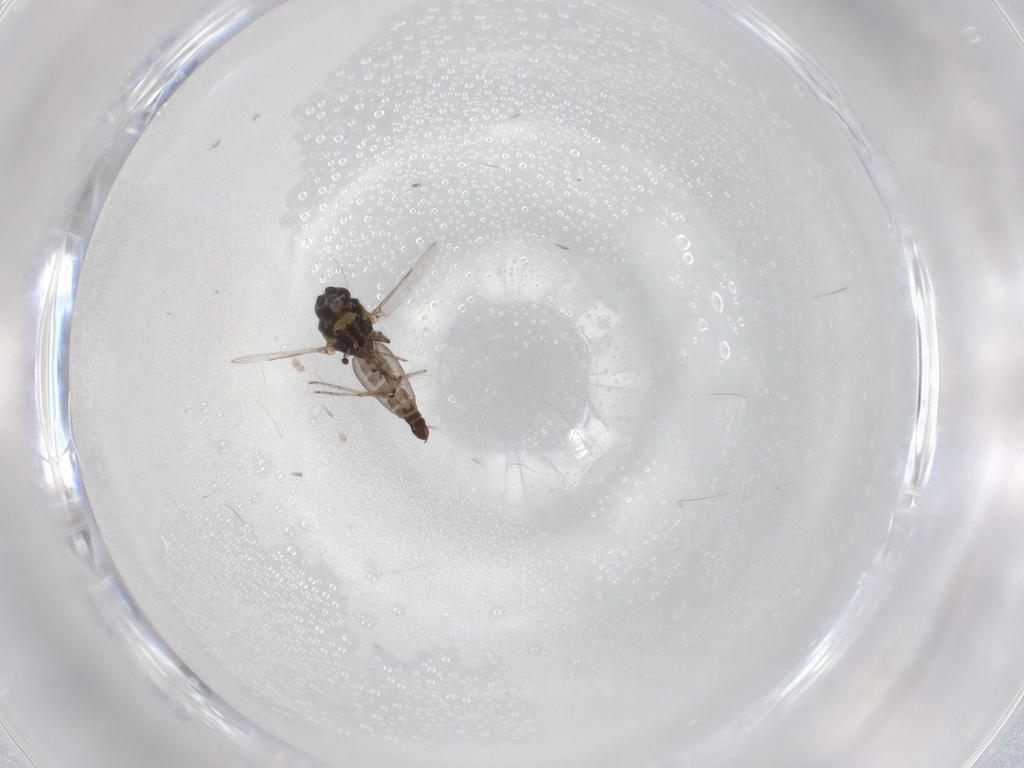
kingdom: Animalia
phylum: Arthropoda
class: Insecta
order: Diptera
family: Ceratopogonidae
